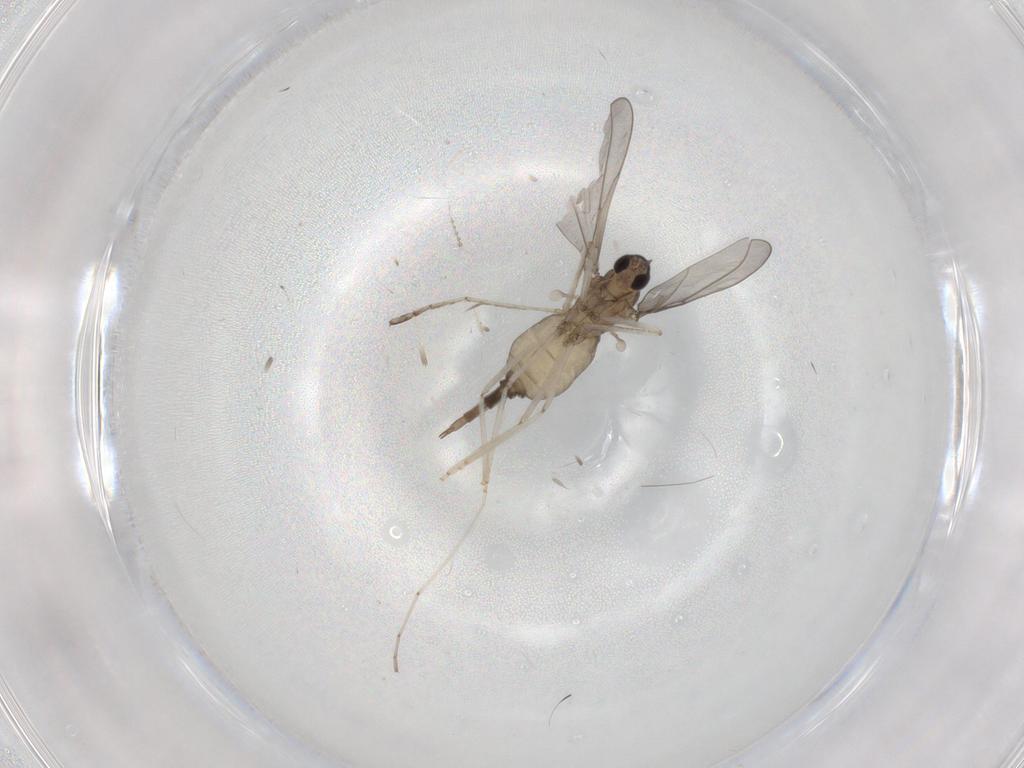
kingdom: Animalia
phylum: Arthropoda
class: Insecta
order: Diptera
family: Cecidomyiidae
